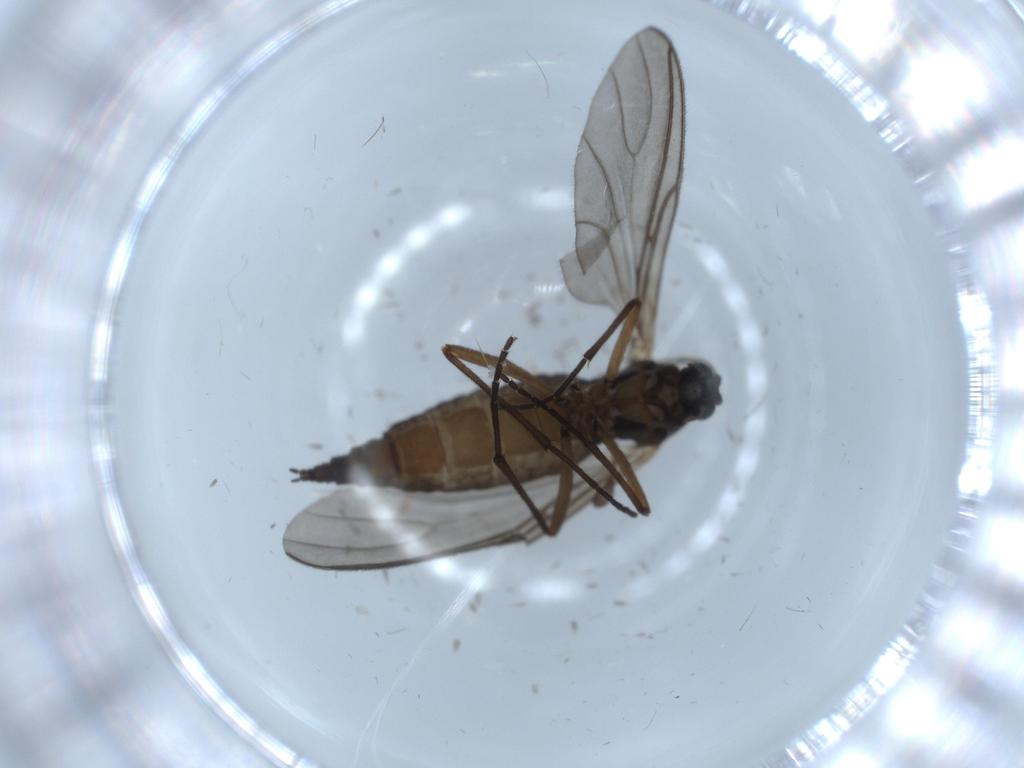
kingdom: Animalia
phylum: Arthropoda
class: Insecta
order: Diptera
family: Sciaridae
